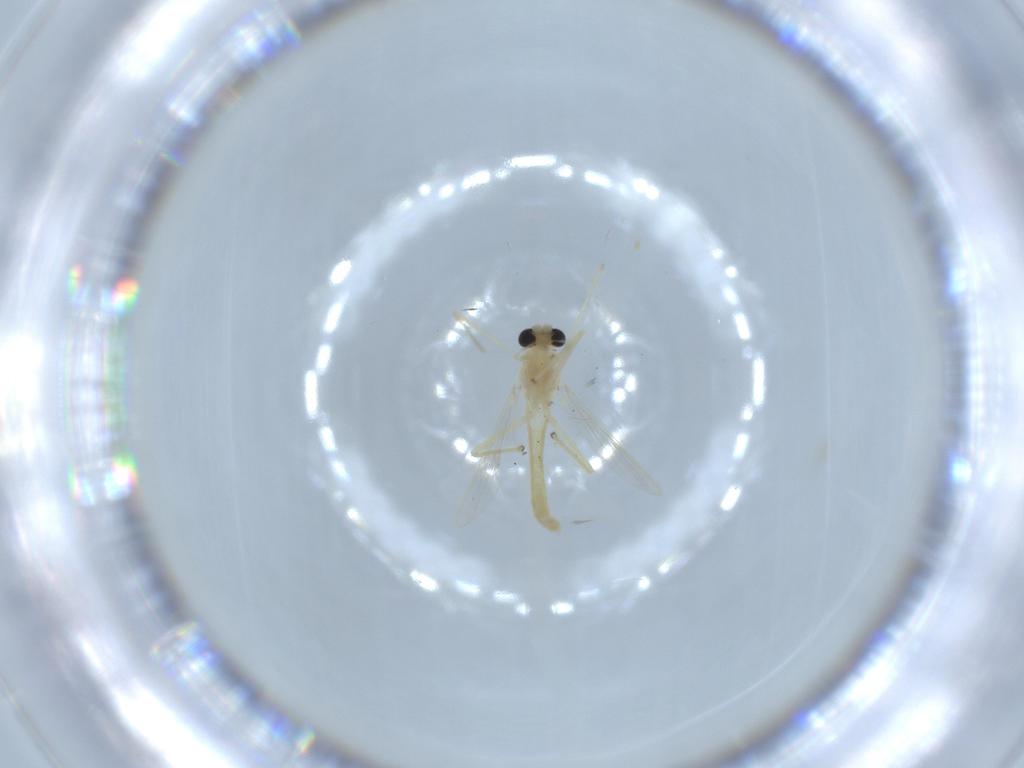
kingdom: Animalia
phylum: Arthropoda
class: Insecta
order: Diptera
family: Chironomidae
